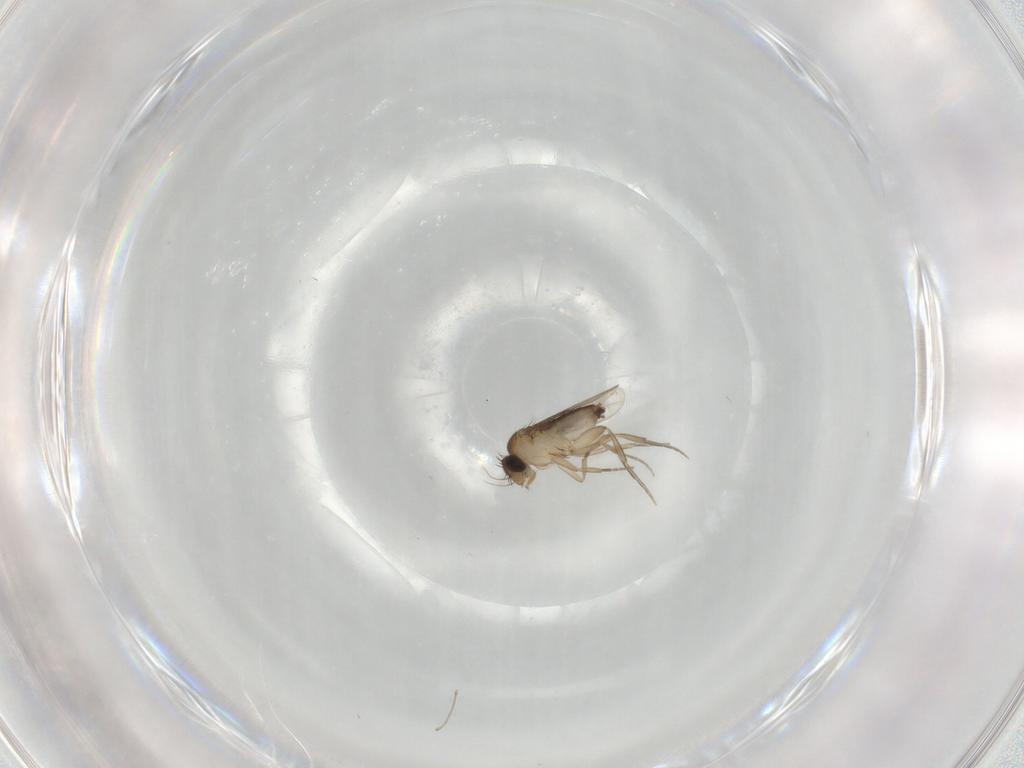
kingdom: Animalia
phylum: Arthropoda
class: Insecta
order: Diptera
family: Phoridae
